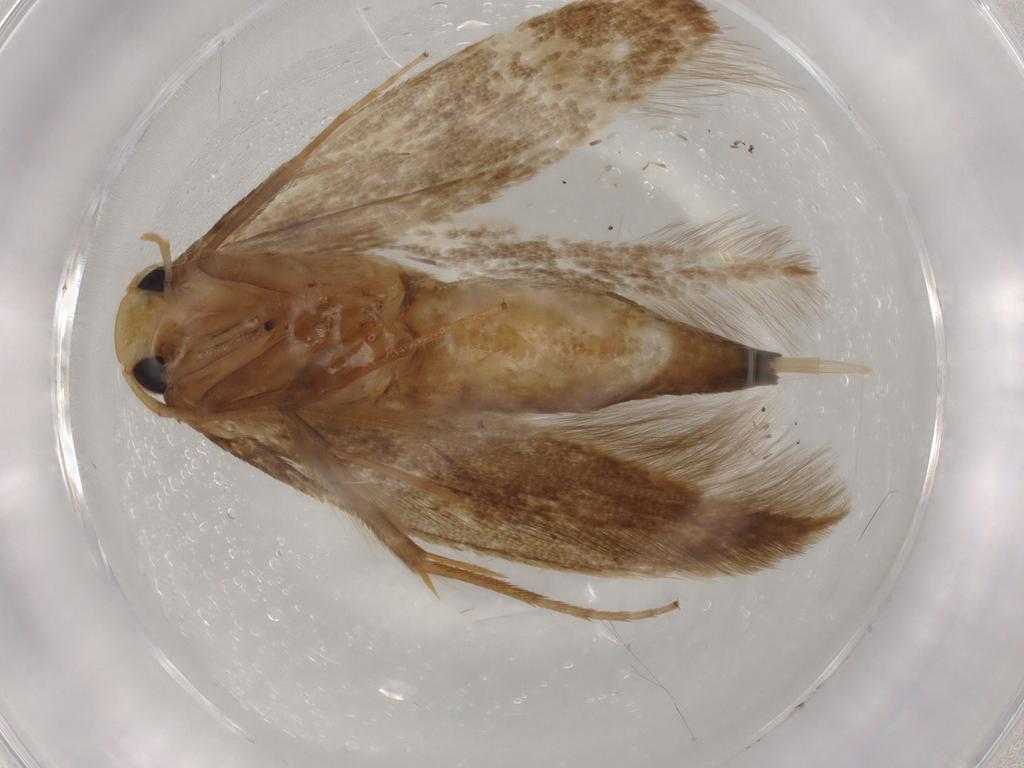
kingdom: Animalia
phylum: Arthropoda
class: Insecta
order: Lepidoptera
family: Tineidae
